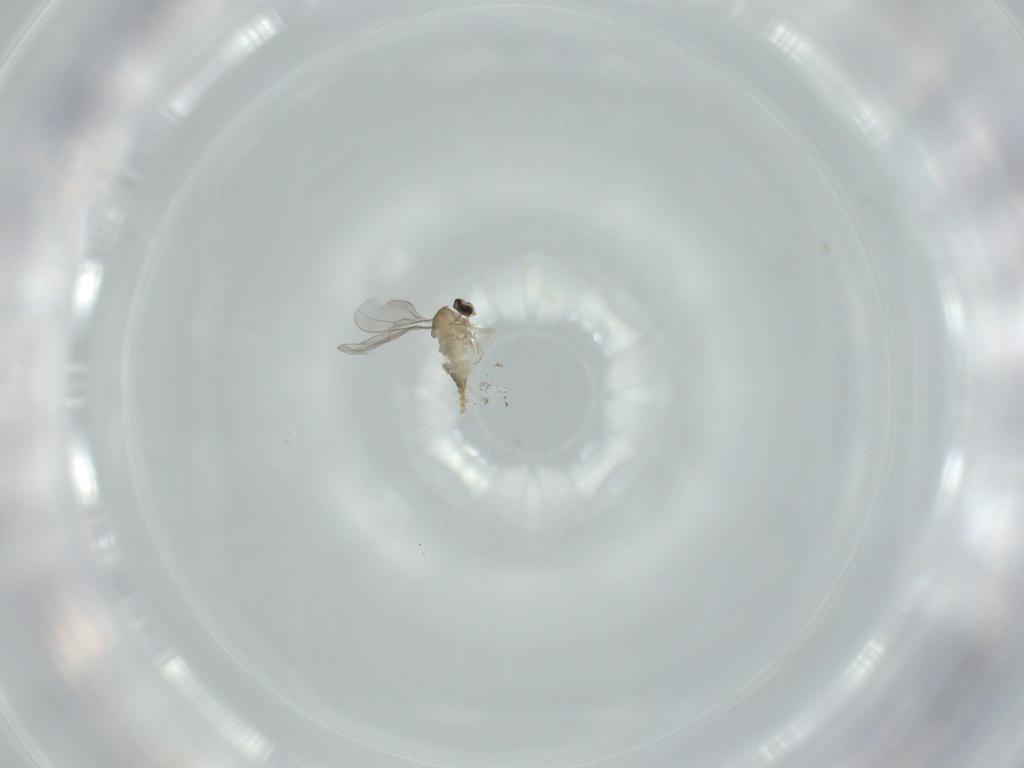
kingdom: Animalia
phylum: Arthropoda
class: Insecta
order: Diptera
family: Cecidomyiidae
